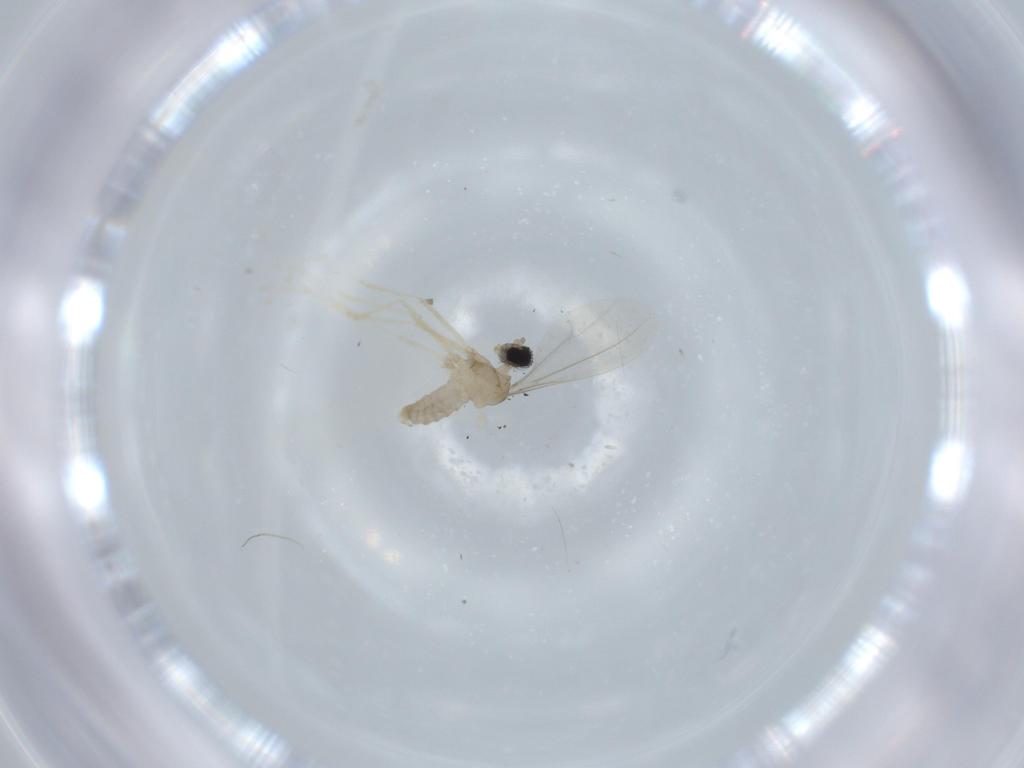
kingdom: Animalia
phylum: Arthropoda
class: Insecta
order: Diptera
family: Cecidomyiidae
